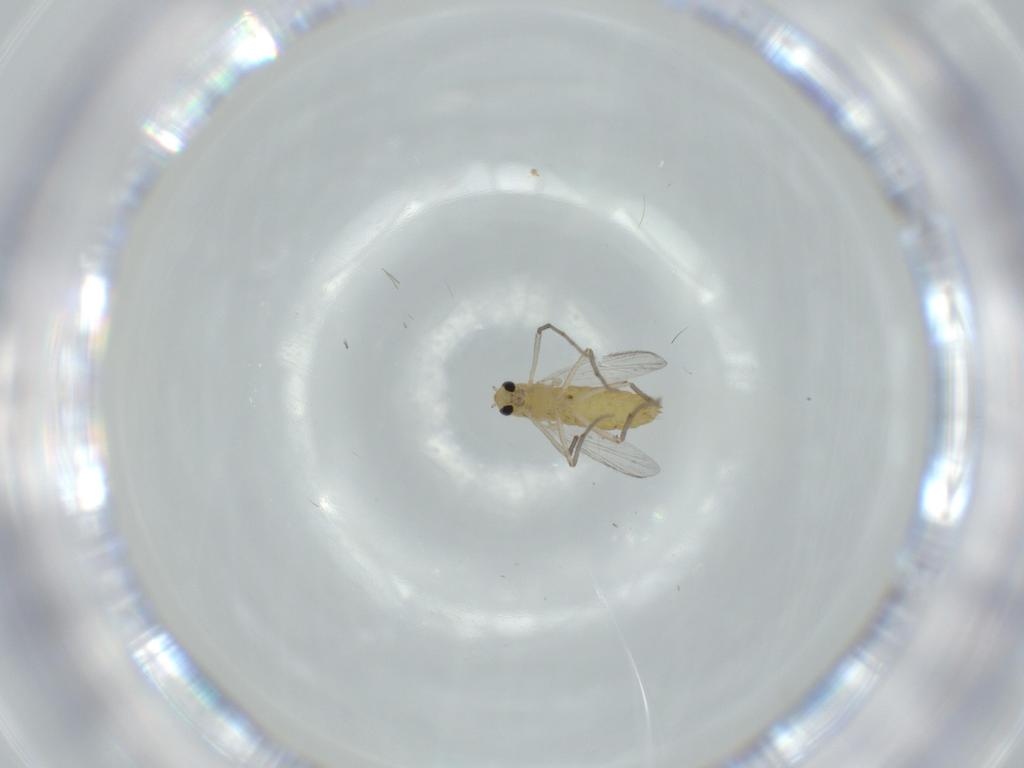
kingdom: Animalia
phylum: Arthropoda
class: Insecta
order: Diptera
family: Chironomidae
